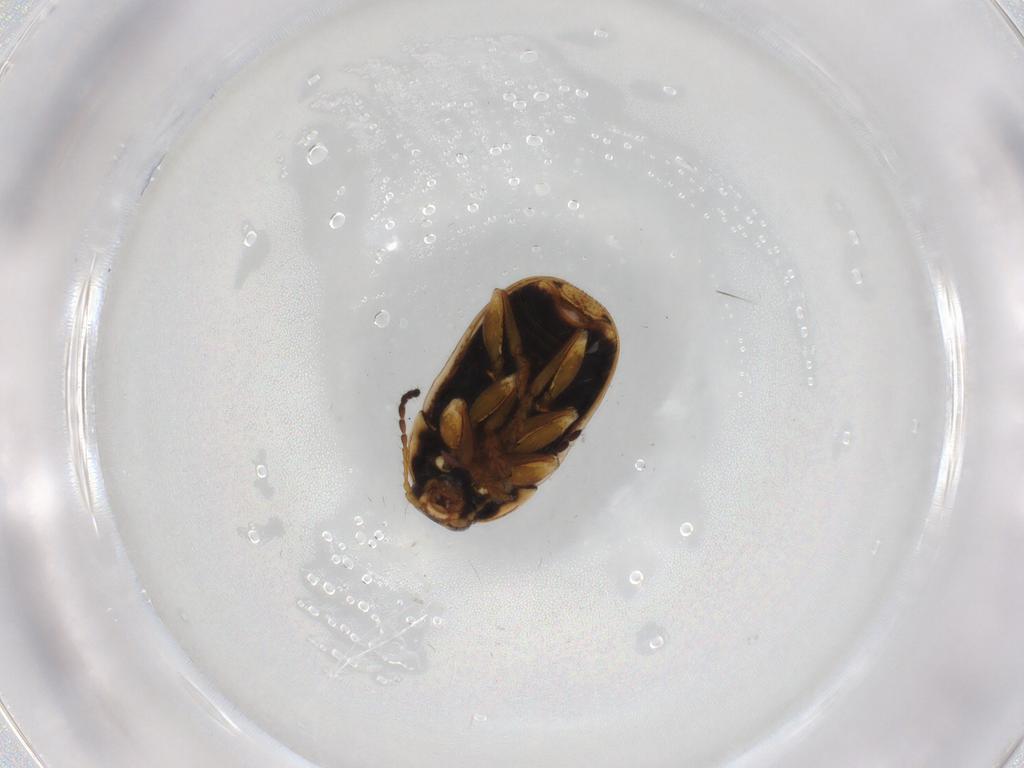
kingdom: Animalia
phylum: Arthropoda
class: Insecta
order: Coleoptera
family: Chrysomelidae
